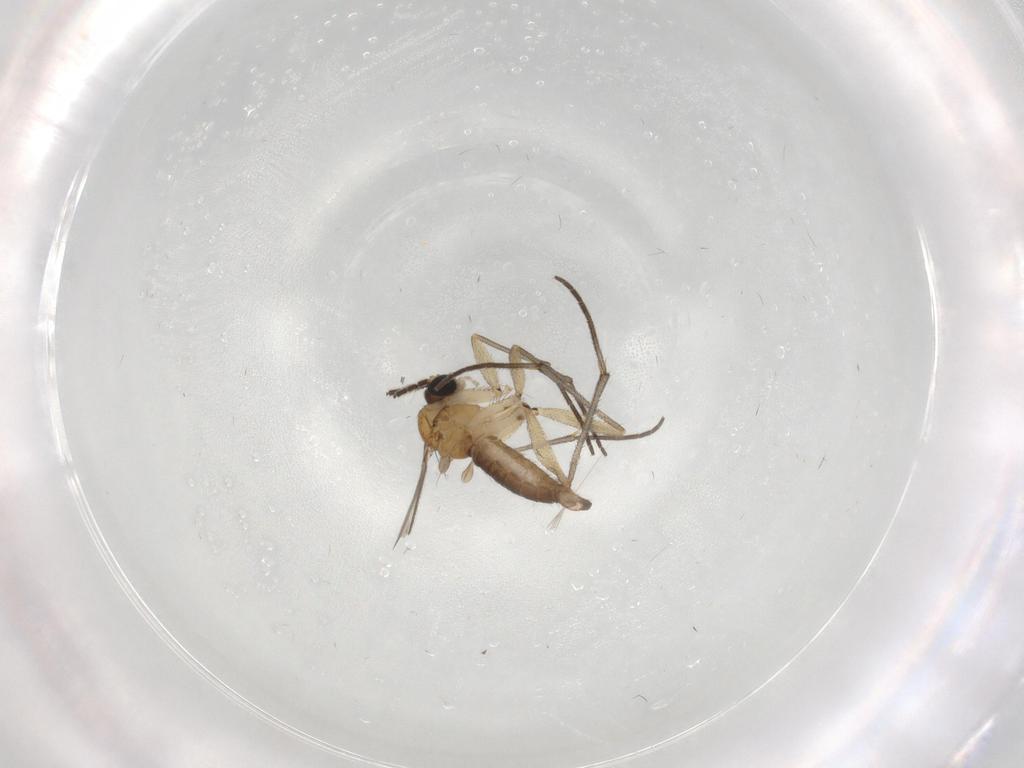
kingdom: Animalia
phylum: Arthropoda
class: Insecta
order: Diptera
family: Sciaridae
